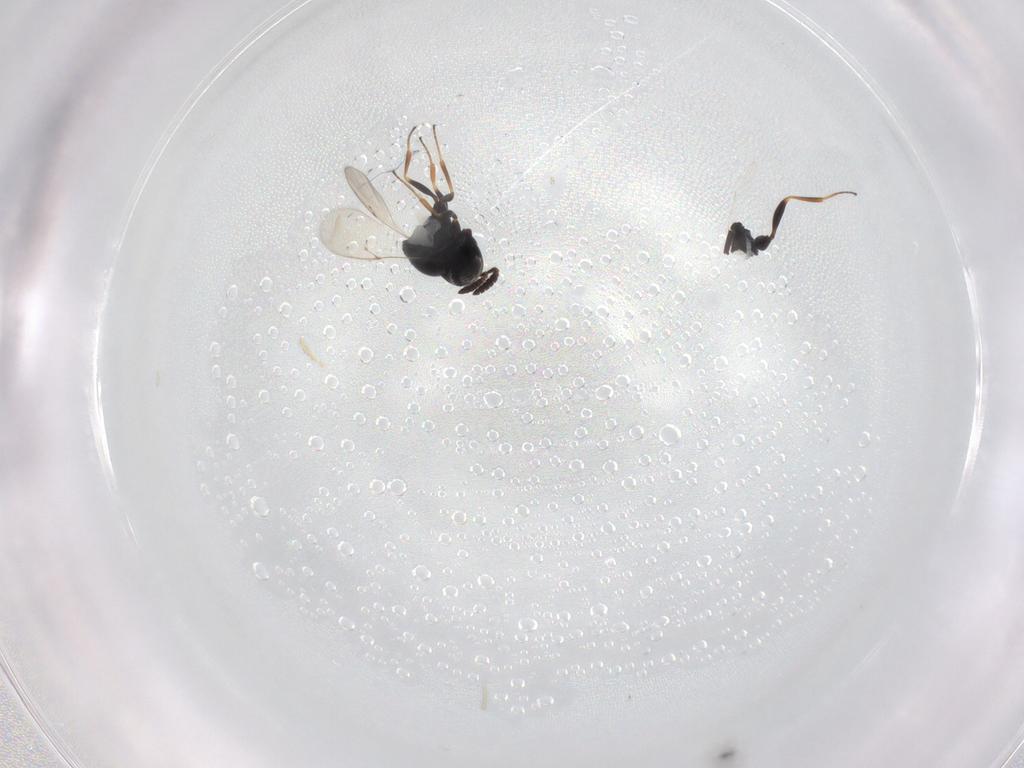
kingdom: Animalia
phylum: Arthropoda
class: Insecta
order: Hymenoptera
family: Scelionidae
